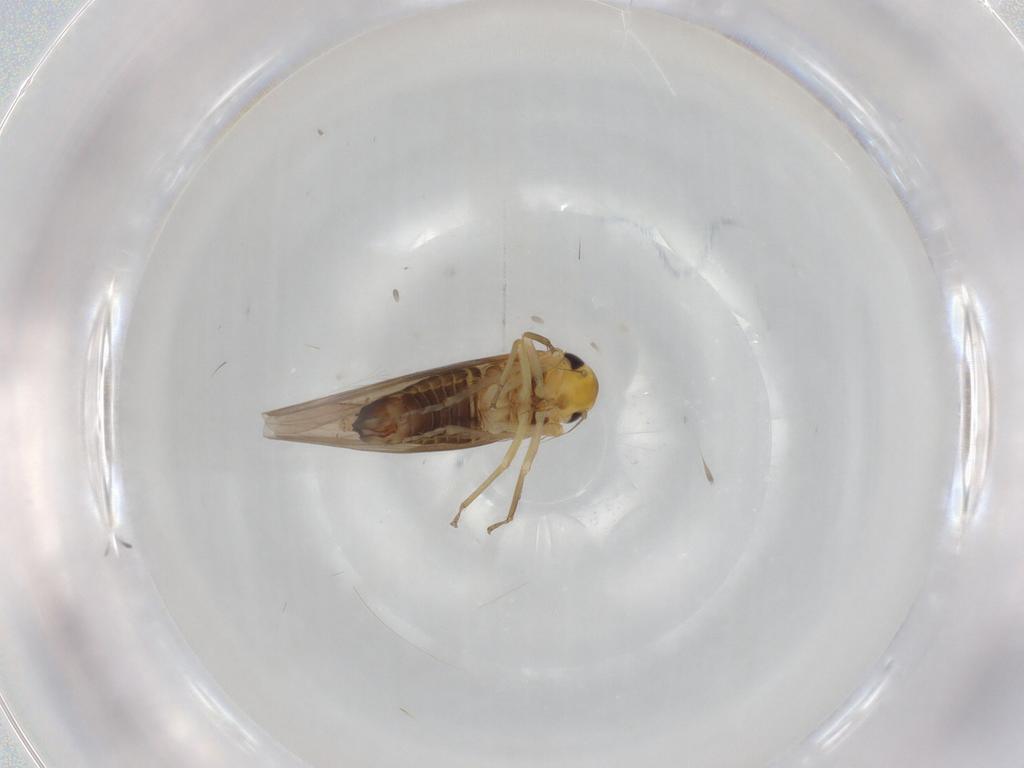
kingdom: Animalia
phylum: Arthropoda
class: Insecta
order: Hemiptera
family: Cicadellidae
